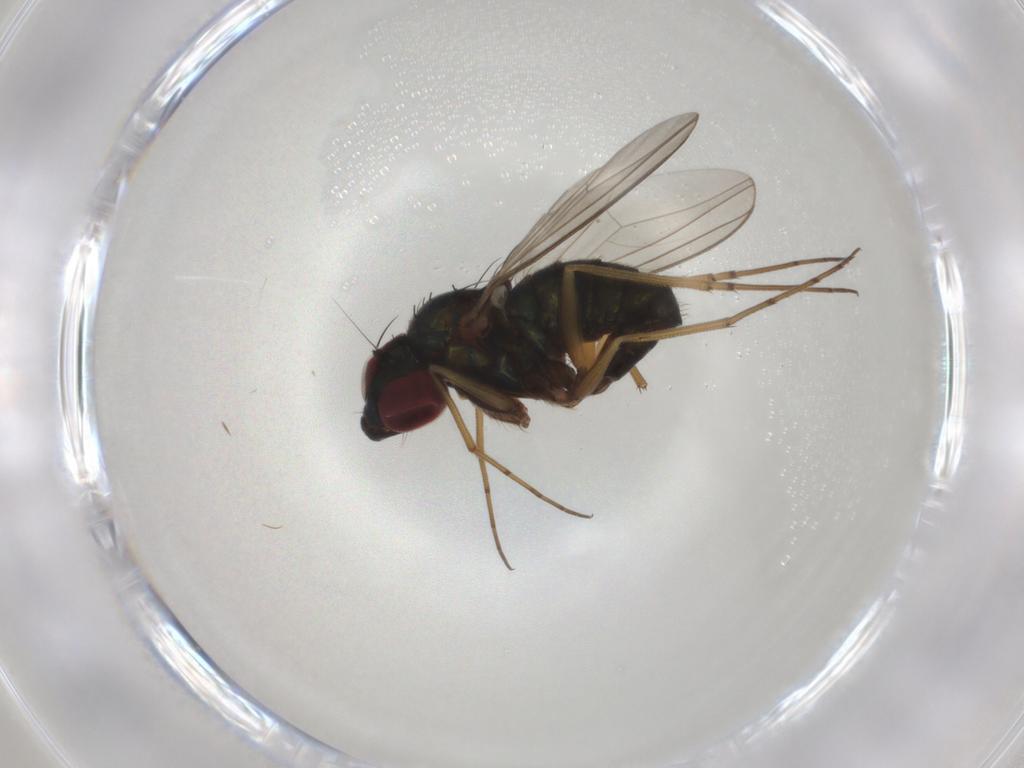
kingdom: Animalia
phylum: Arthropoda
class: Insecta
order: Diptera
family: Dolichopodidae
